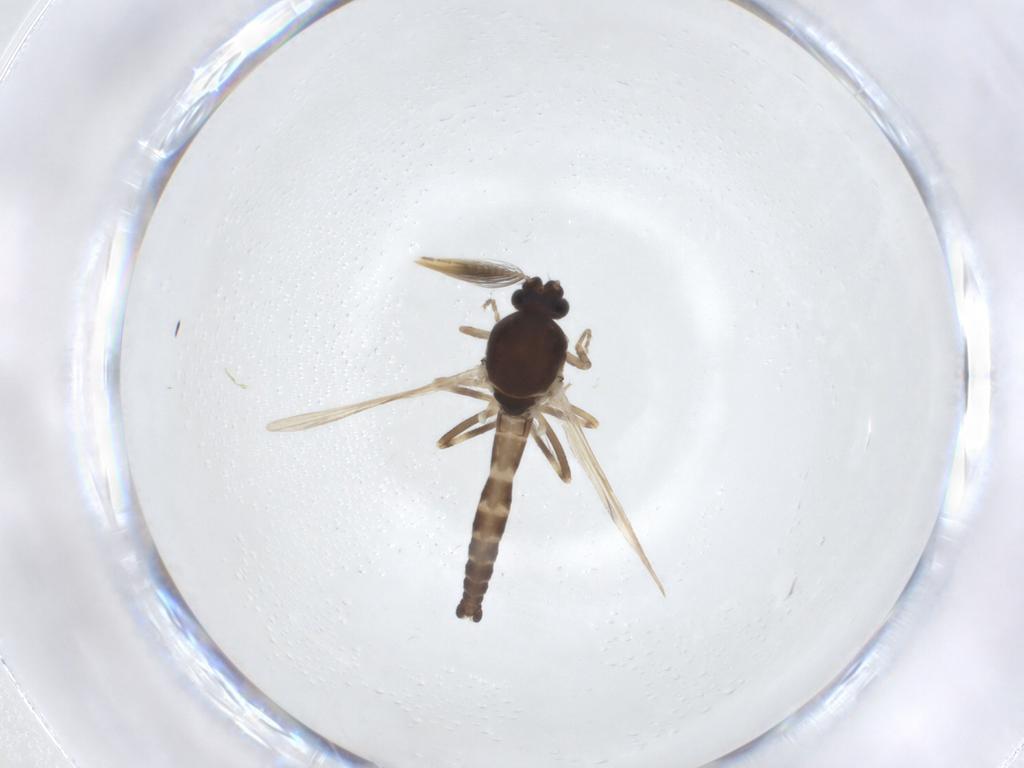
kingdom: Animalia
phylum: Arthropoda
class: Insecta
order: Diptera
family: Ceratopogonidae
